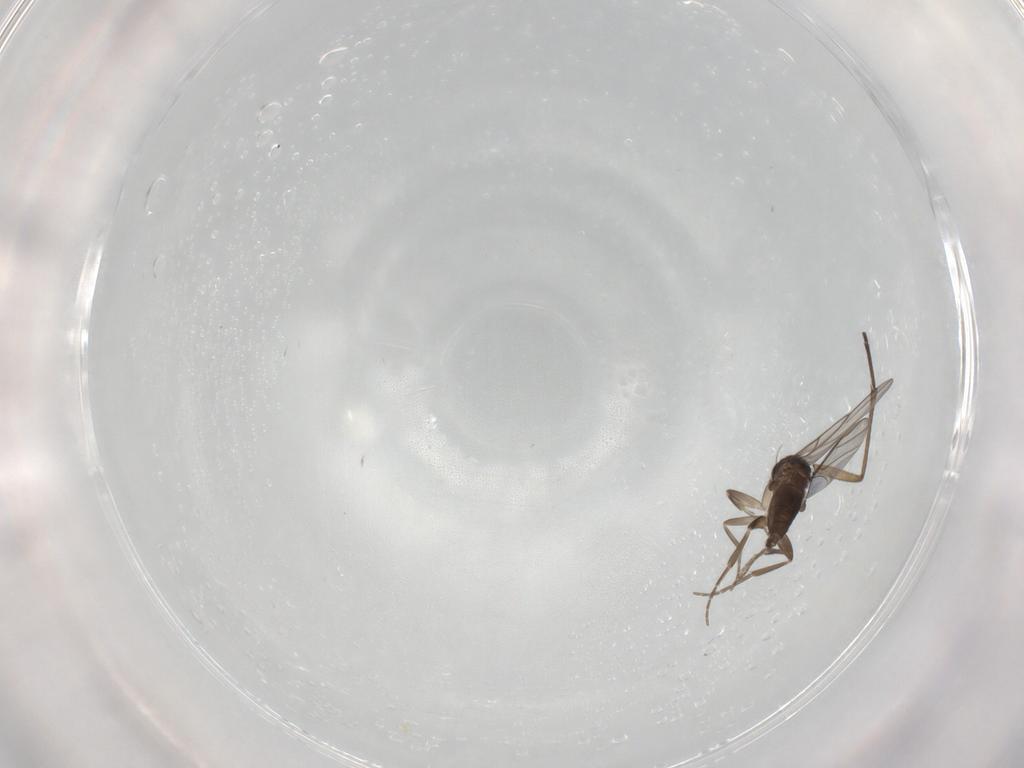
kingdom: Animalia
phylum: Arthropoda
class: Insecta
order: Diptera
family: Sciaridae
